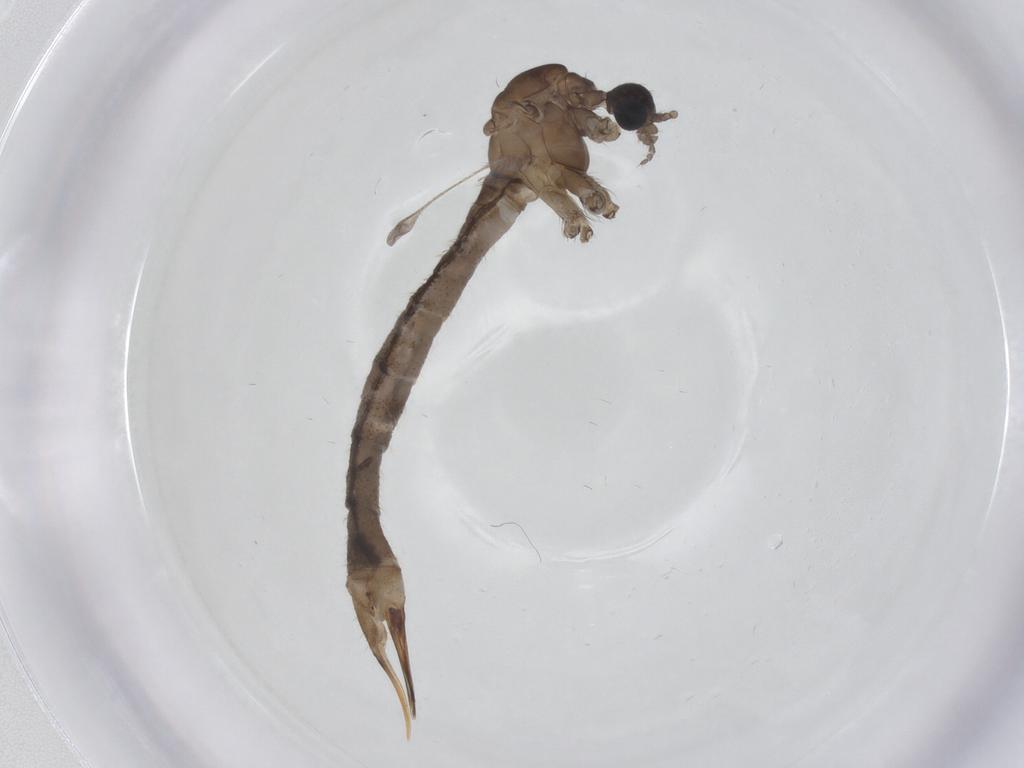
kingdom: Animalia
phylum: Arthropoda
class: Insecta
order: Diptera
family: Limoniidae
